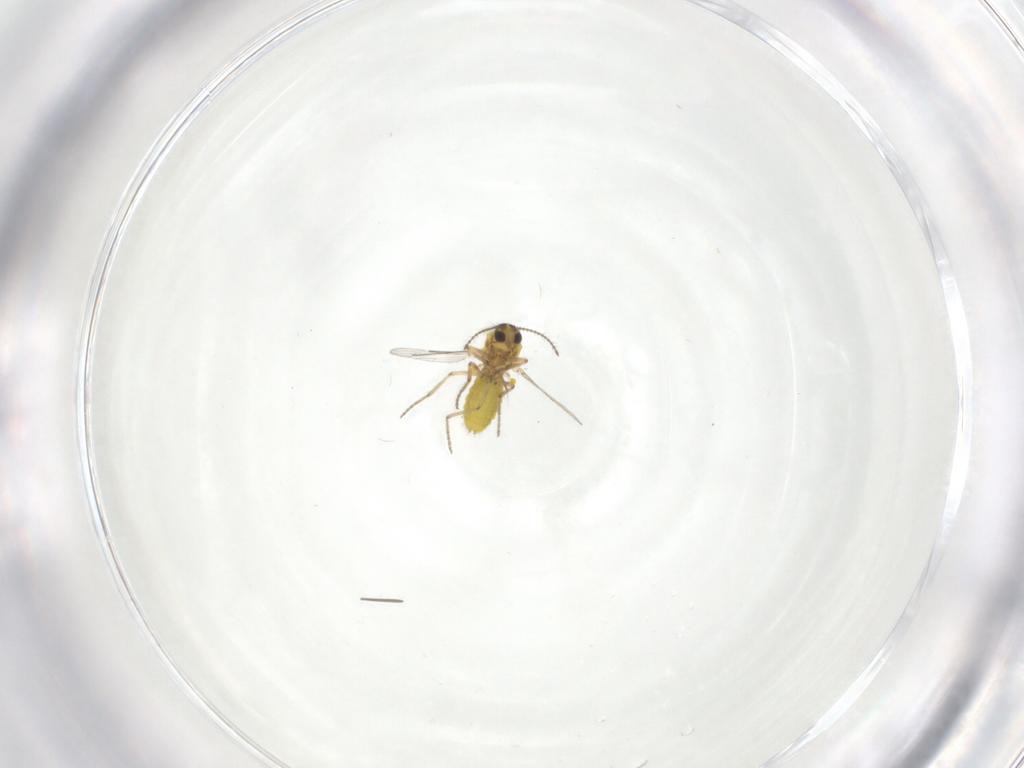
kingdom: Animalia
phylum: Arthropoda
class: Insecta
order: Diptera
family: Ceratopogonidae
